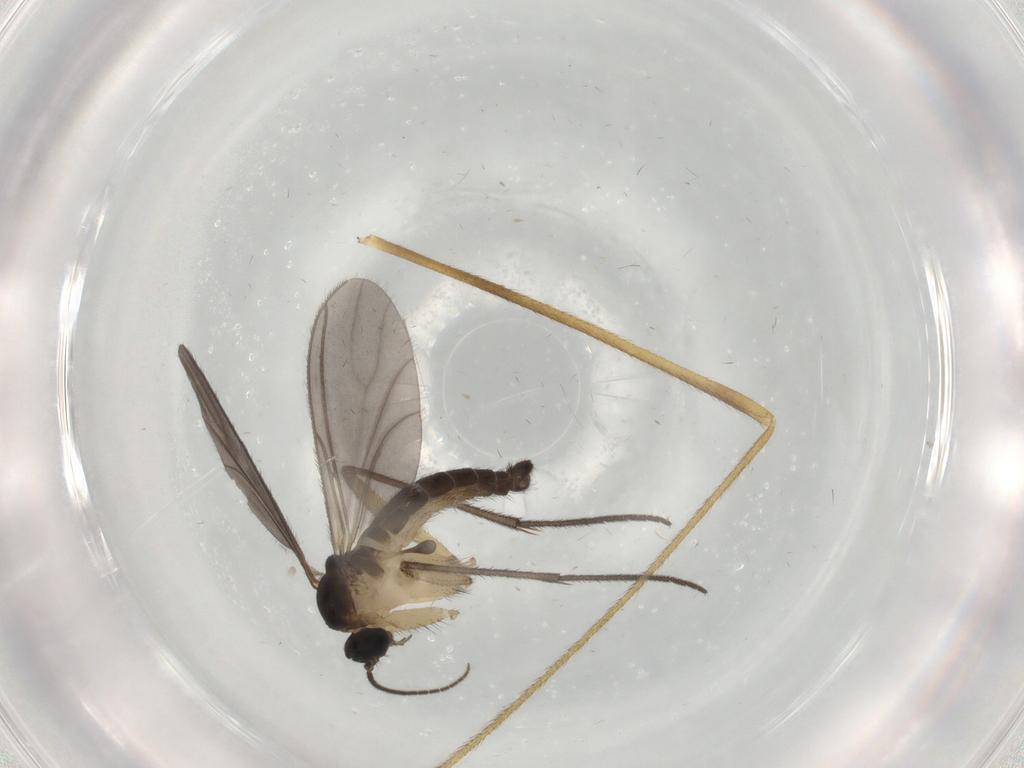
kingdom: Animalia
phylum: Arthropoda
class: Insecta
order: Diptera
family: Sciaridae
